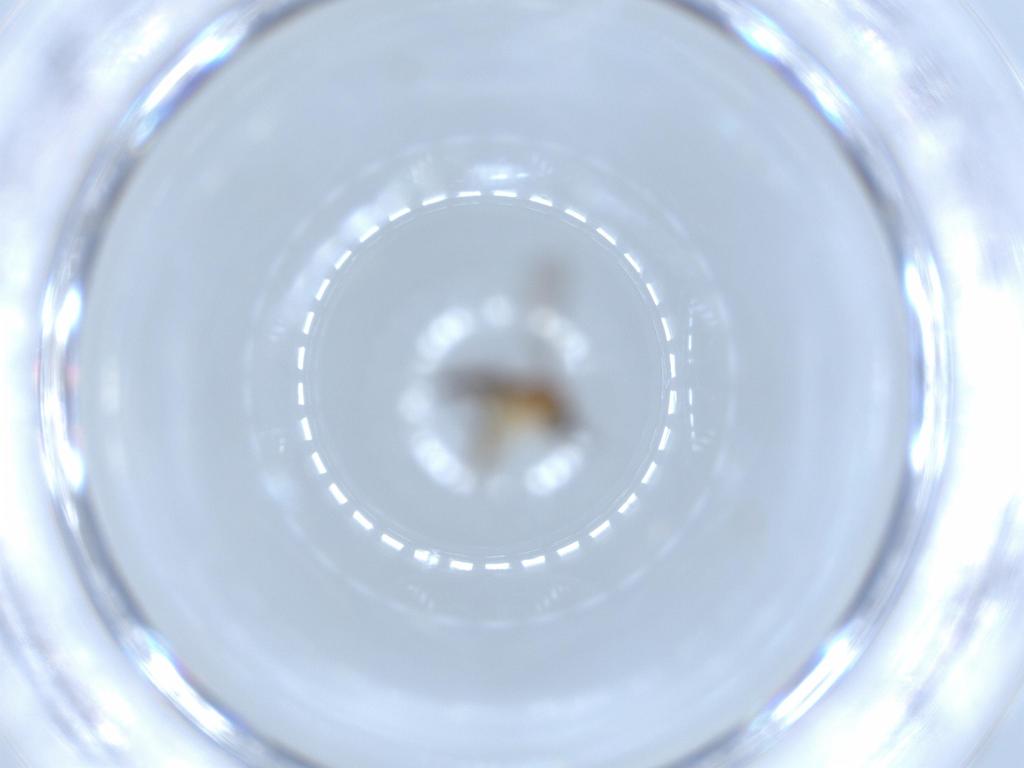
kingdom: Animalia
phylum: Arthropoda
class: Insecta
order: Diptera
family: Sciaridae
